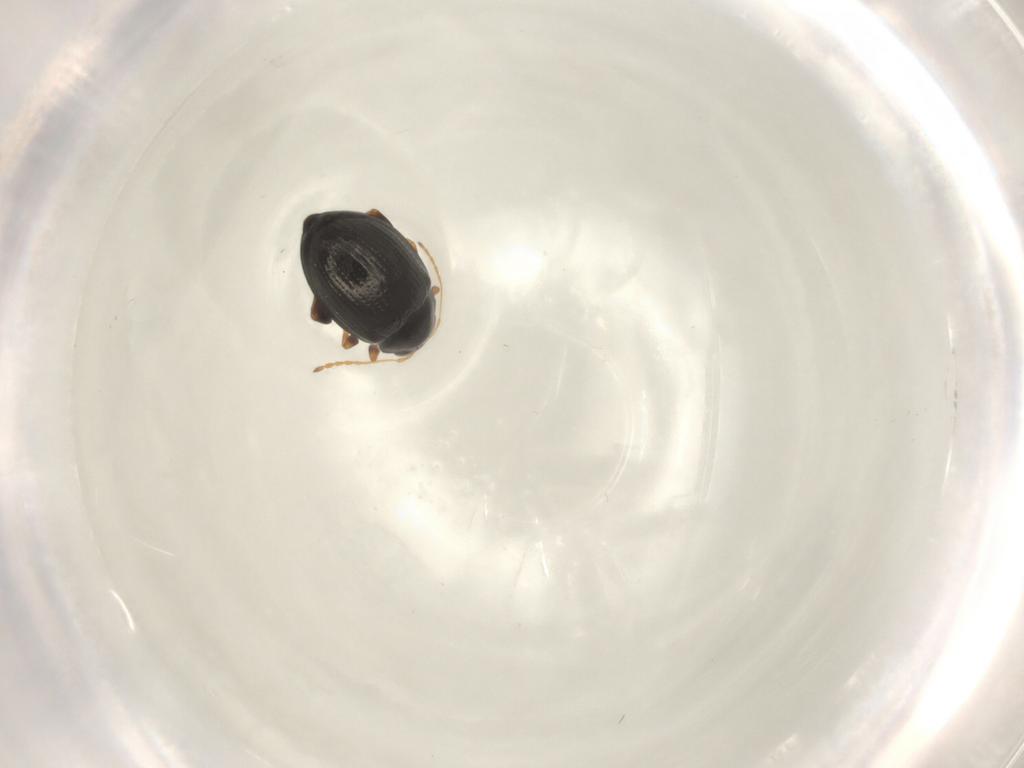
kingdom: Animalia
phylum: Arthropoda
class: Insecta
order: Coleoptera
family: Chrysomelidae
